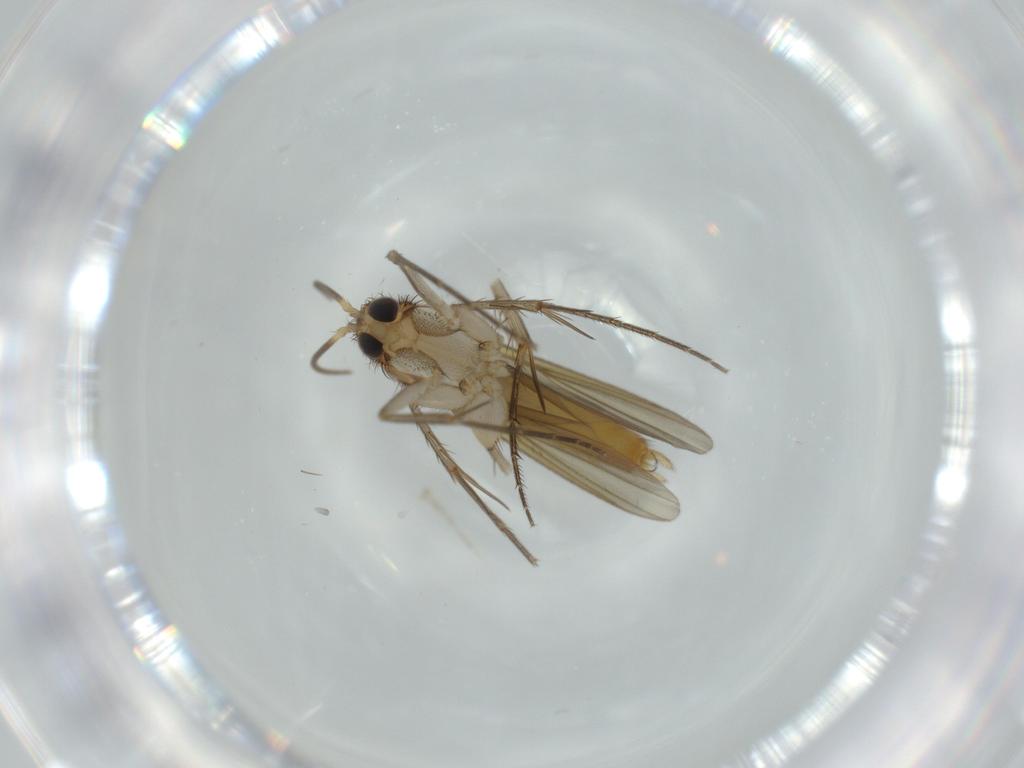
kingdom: Animalia
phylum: Arthropoda
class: Insecta
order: Diptera
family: Mycetophilidae
